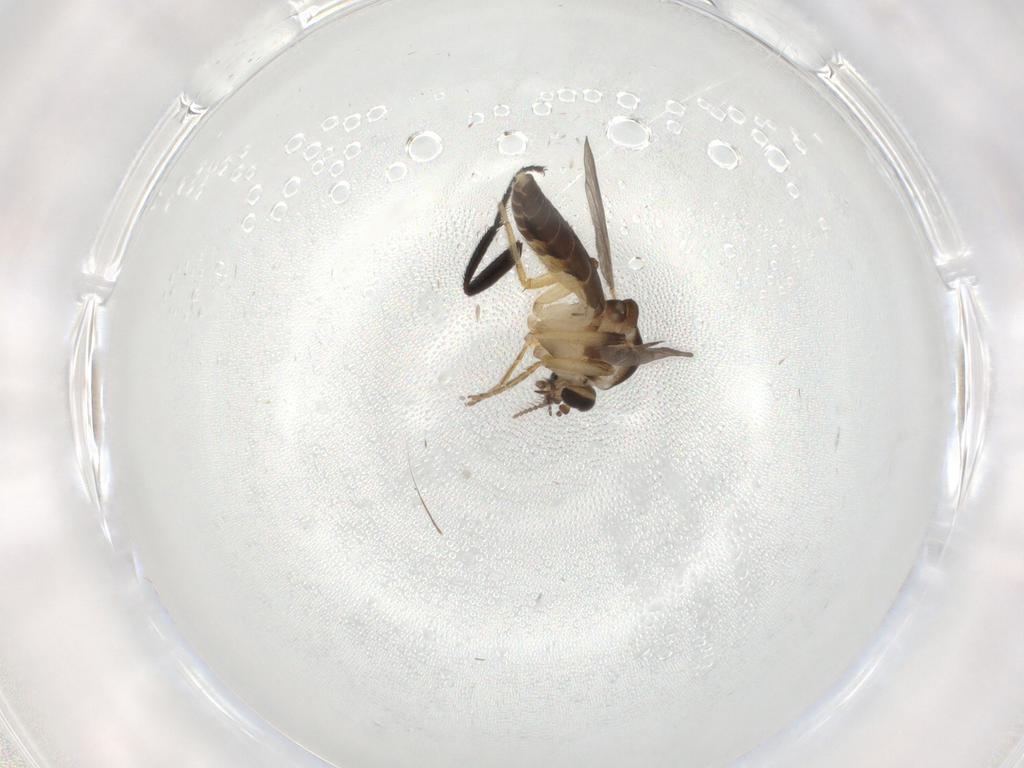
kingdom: Animalia
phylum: Arthropoda
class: Insecta
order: Diptera
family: Ceratopogonidae
